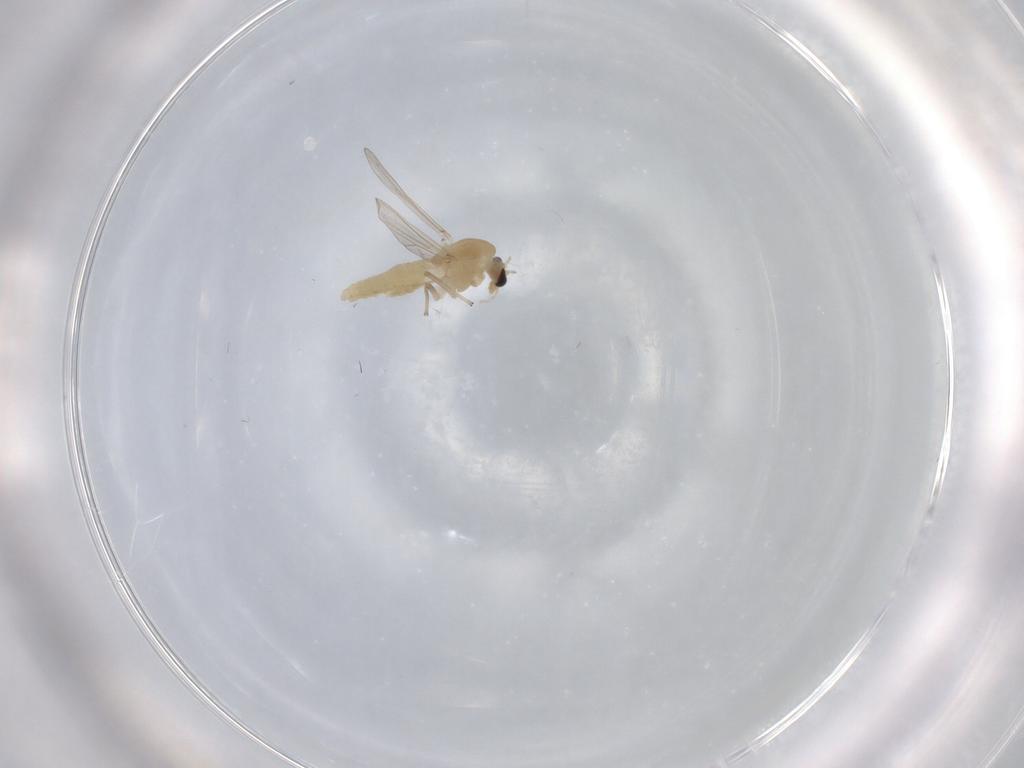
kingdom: Animalia
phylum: Arthropoda
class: Insecta
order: Diptera
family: Chironomidae
